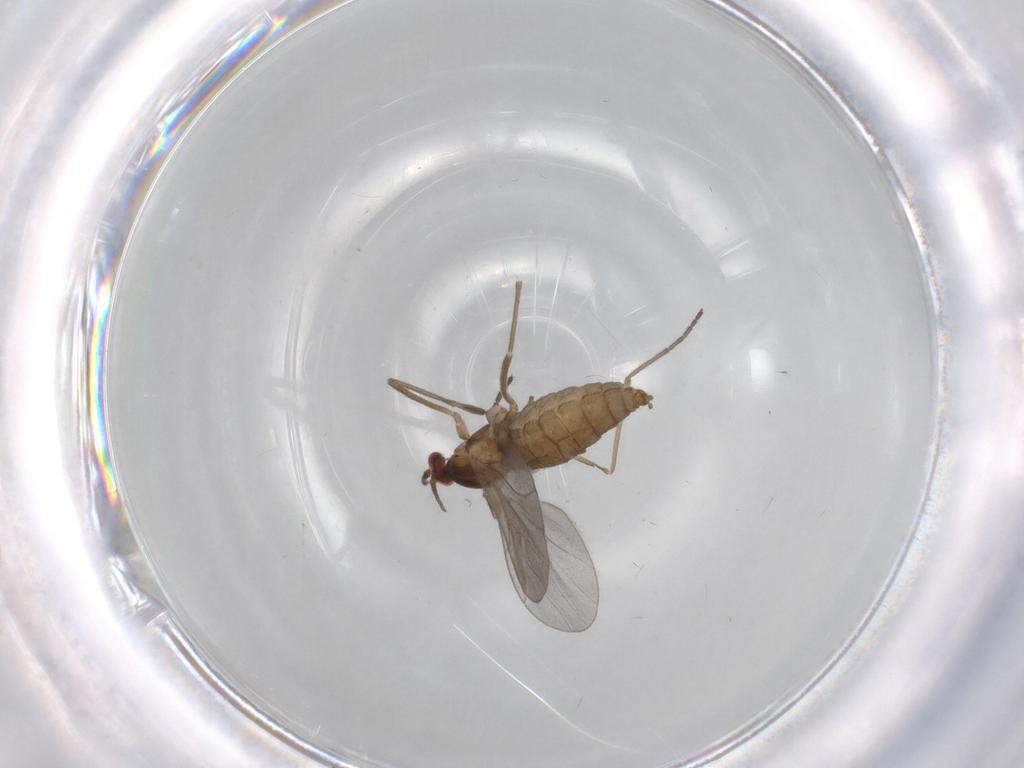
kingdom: Animalia
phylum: Arthropoda
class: Insecta
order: Diptera
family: Cecidomyiidae
